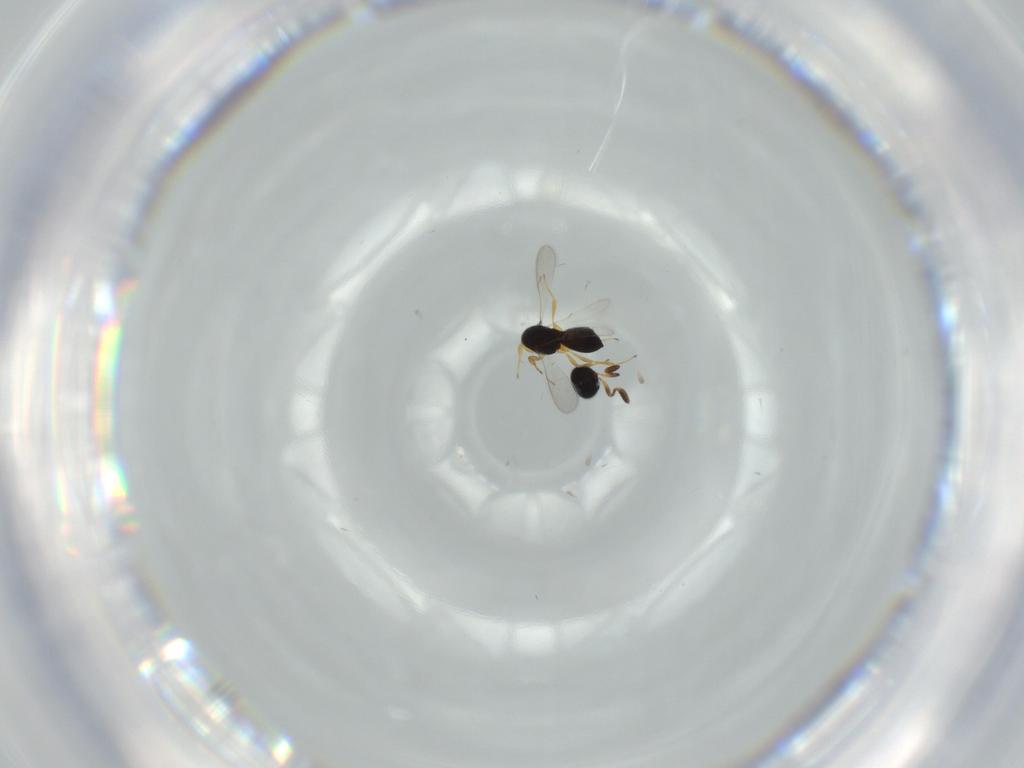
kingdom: Animalia
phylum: Arthropoda
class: Insecta
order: Hymenoptera
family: Scelionidae
